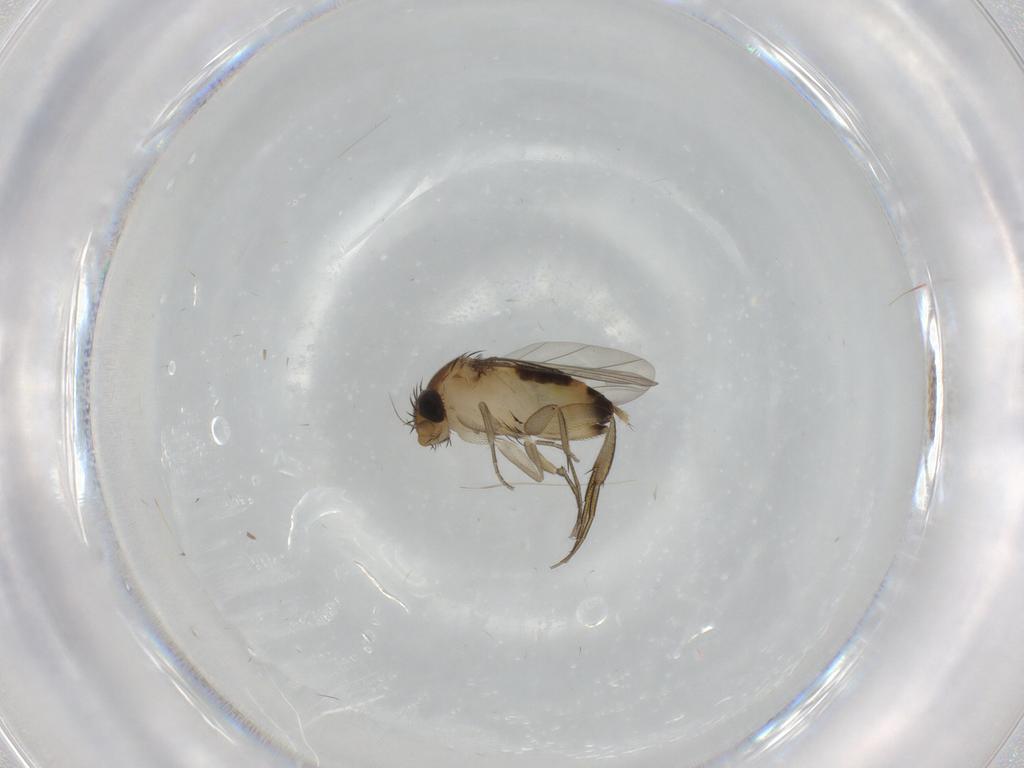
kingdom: Animalia
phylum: Arthropoda
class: Insecta
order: Diptera
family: Phoridae
